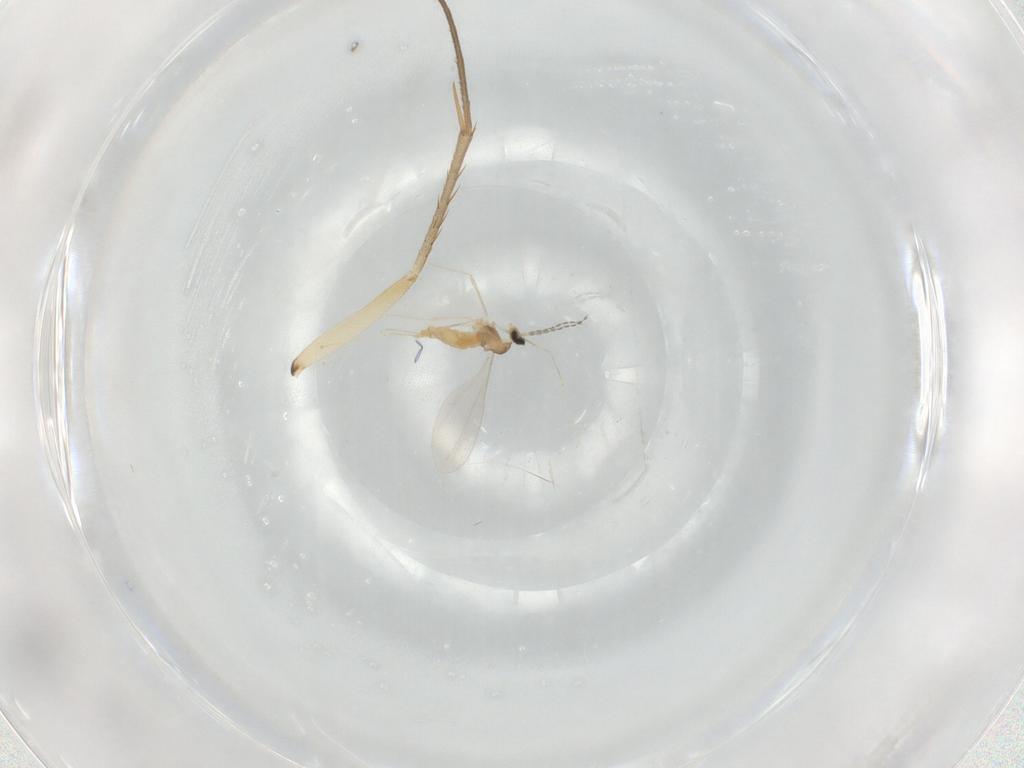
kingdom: Animalia
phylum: Arthropoda
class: Insecta
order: Diptera
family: Cecidomyiidae
